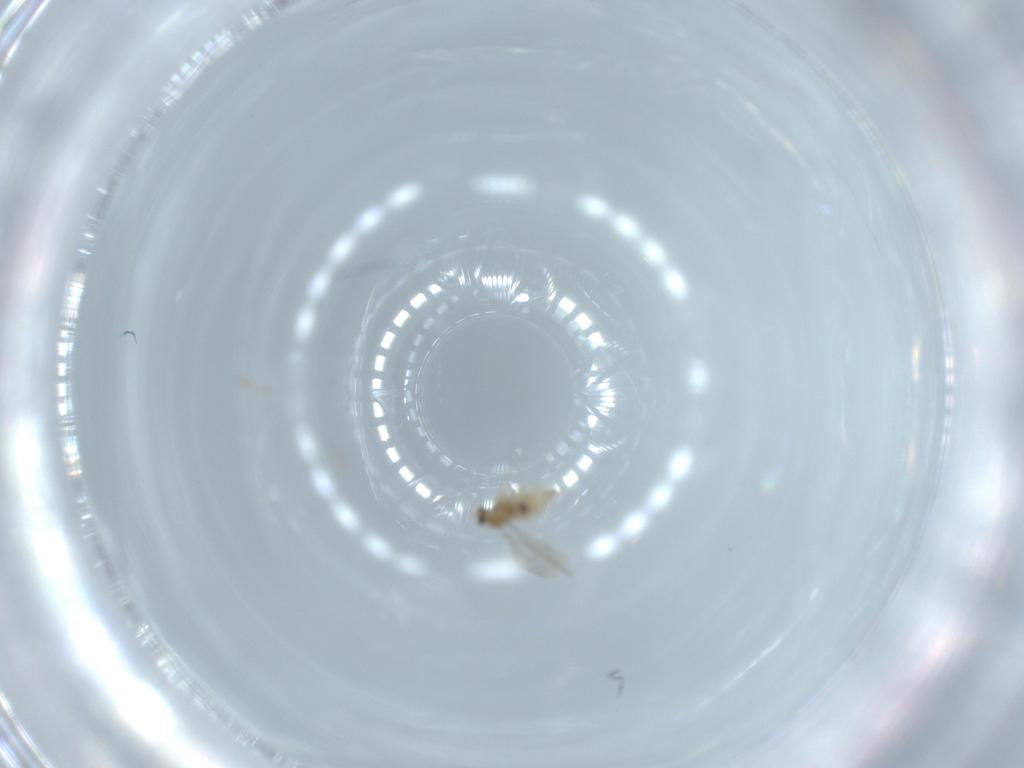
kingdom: Animalia
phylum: Arthropoda
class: Insecta
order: Diptera
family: Cecidomyiidae
